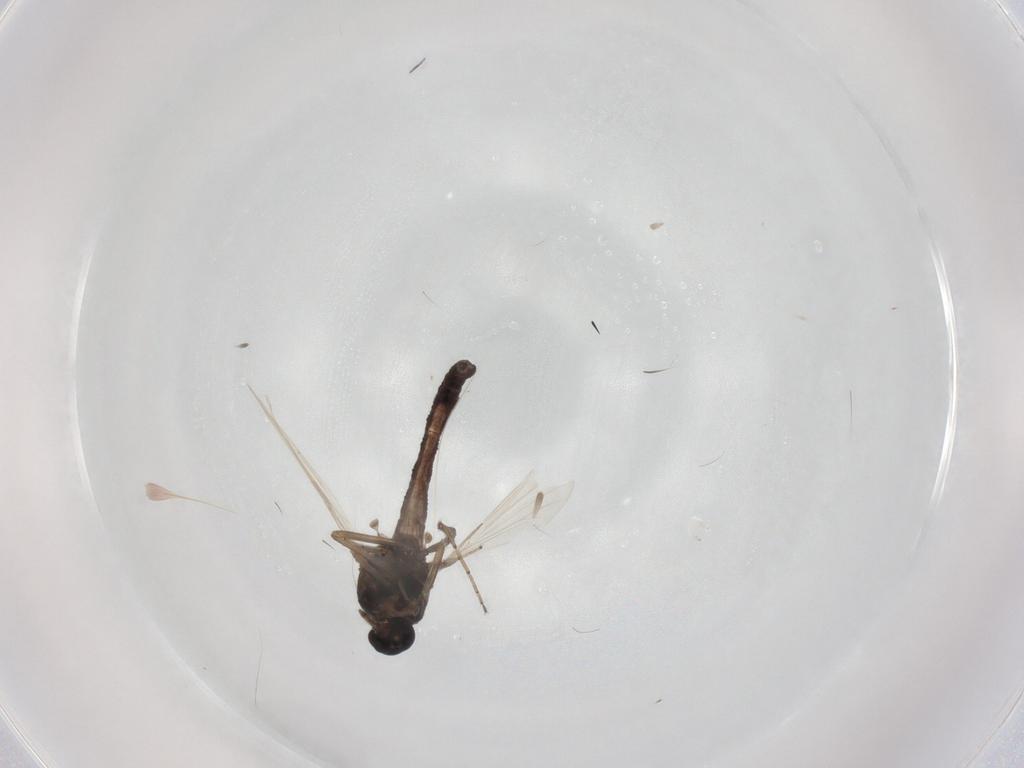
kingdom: Animalia
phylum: Arthropoda
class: Insecta
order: Diptera
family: Ceratopogonidae
